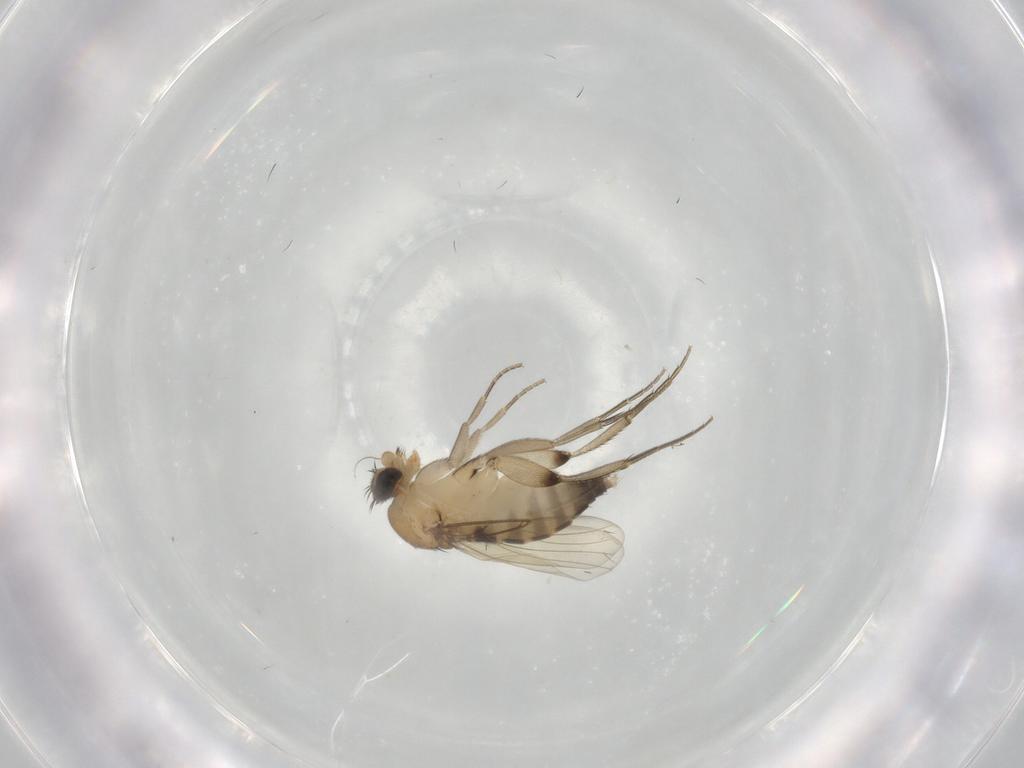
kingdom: Animalia
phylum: Arthropoda
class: Insecta
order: Diptera
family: Phoridae
